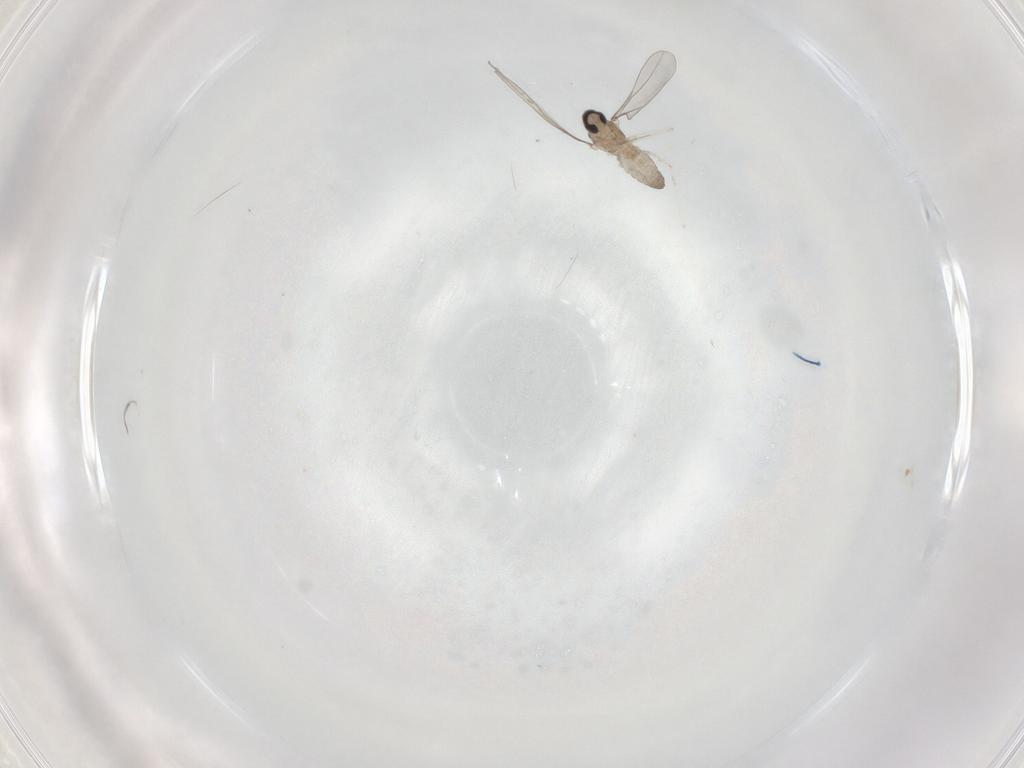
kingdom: Animalia
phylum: Arthropoda
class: Insecta
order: Diptera
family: Cecidomyiidae
